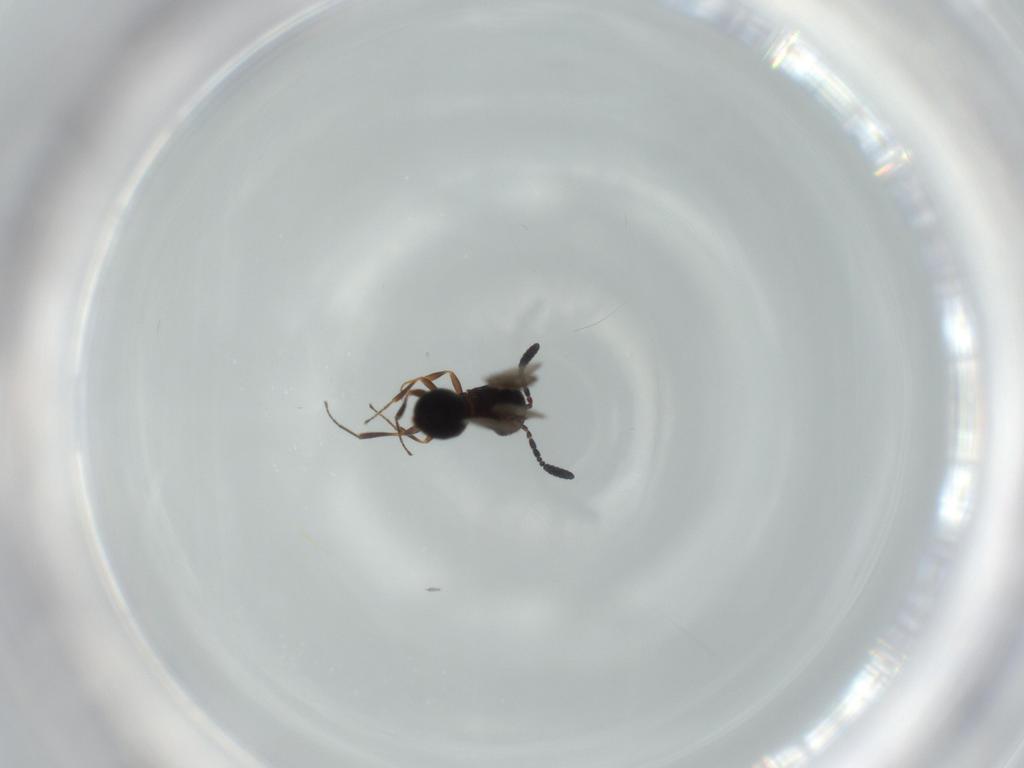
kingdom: Animalia
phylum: Arthropoda
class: Insecta
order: Hymenoptera
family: Scelionidae
